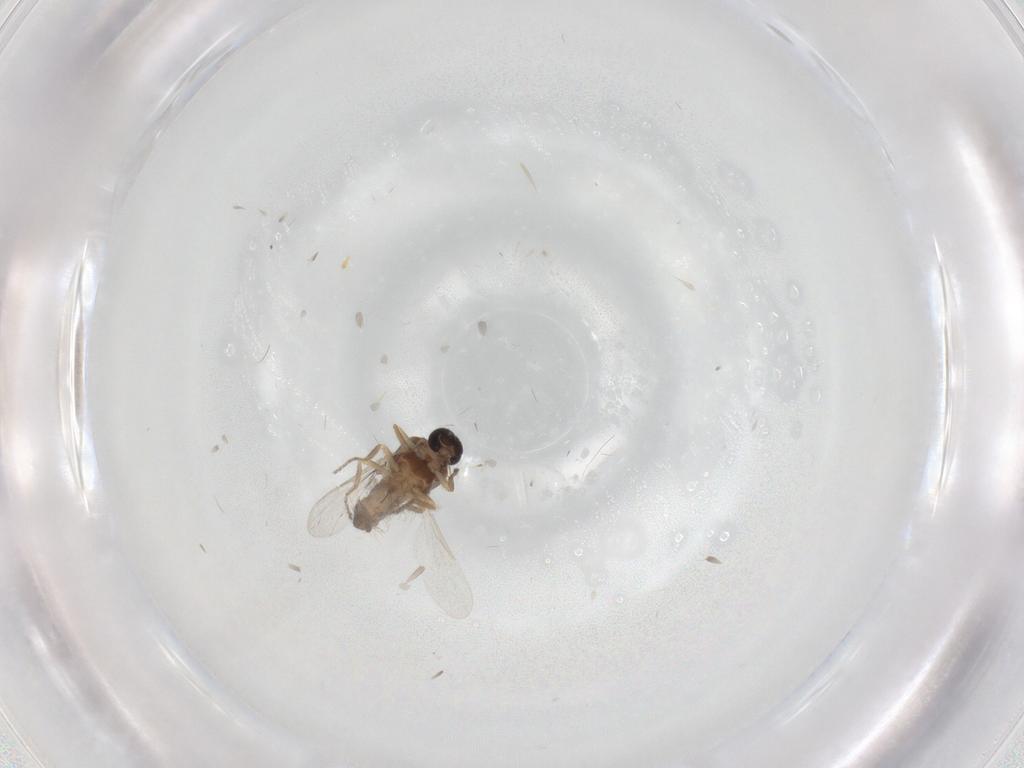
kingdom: Animalia
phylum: Arthropoda
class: Insecta
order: Diptera
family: Ceratopogonidae
